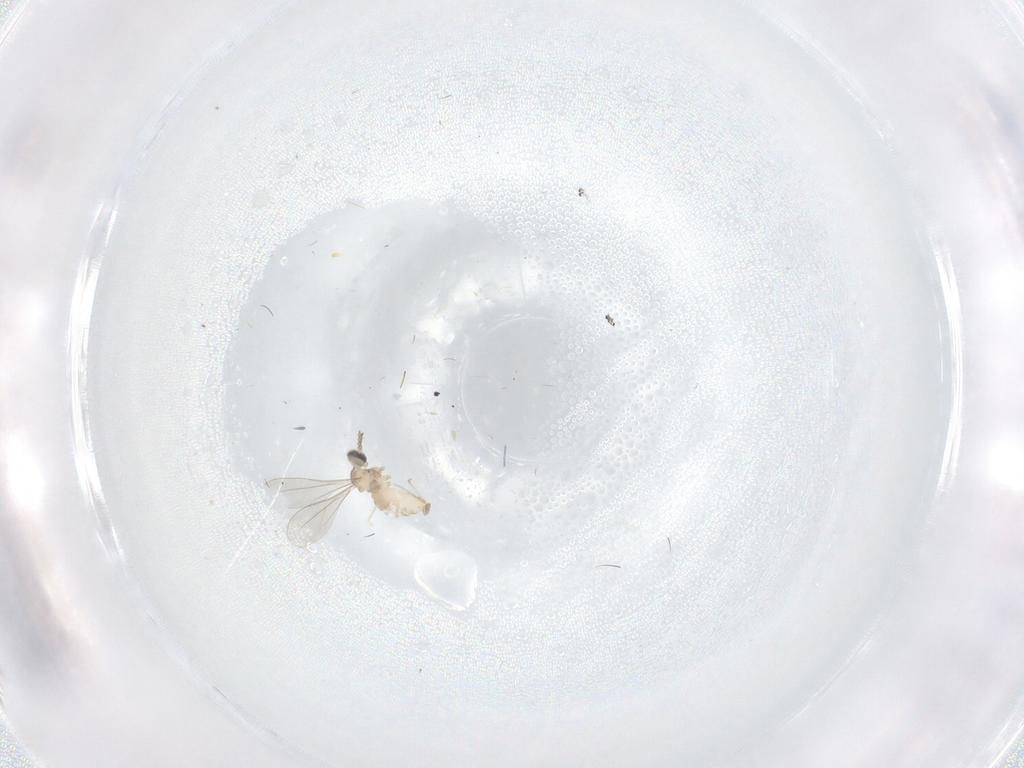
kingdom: Animalia
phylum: Arthropoda
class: Insecta
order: Diptera
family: Cecidomyiidae
